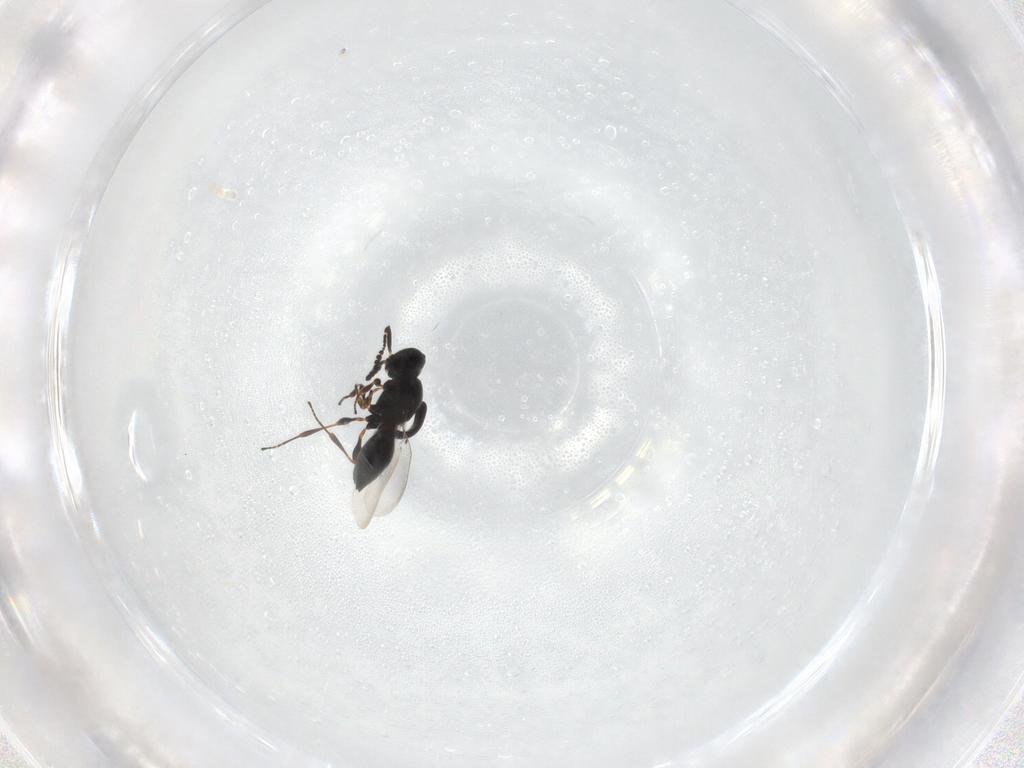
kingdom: Animalia
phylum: Arthropoda
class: Insecta
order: Hymenoptera
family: Platygastridae
